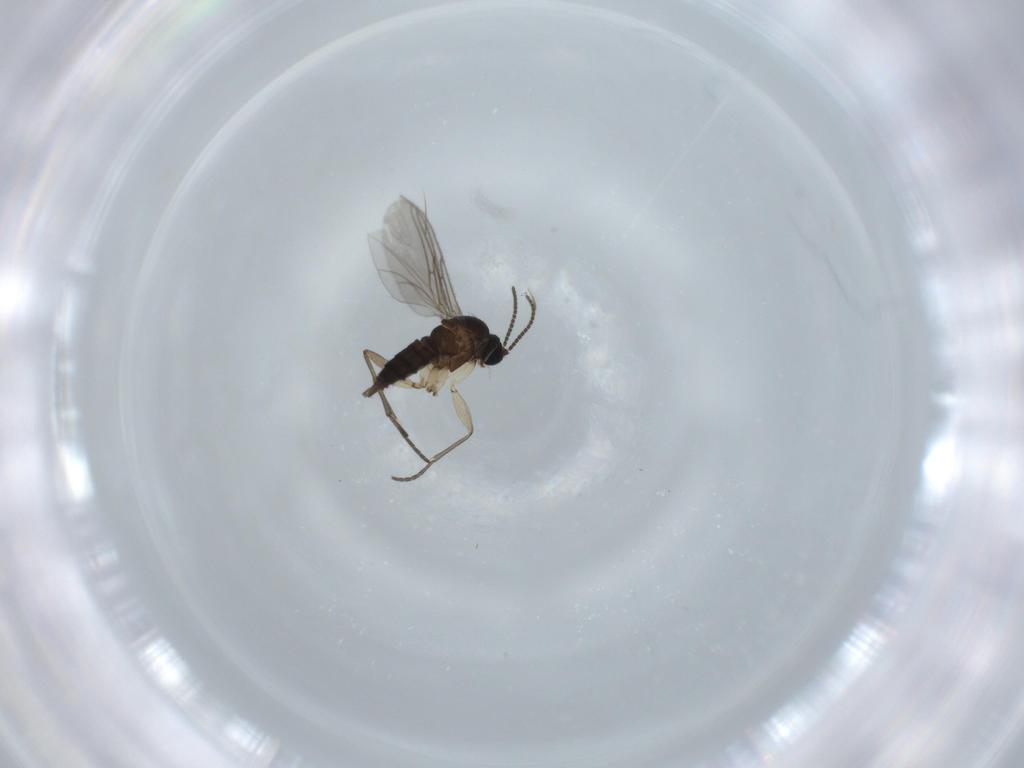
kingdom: Animalia
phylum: Arthropoda
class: Insecta
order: Diptera
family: Sciaridae
